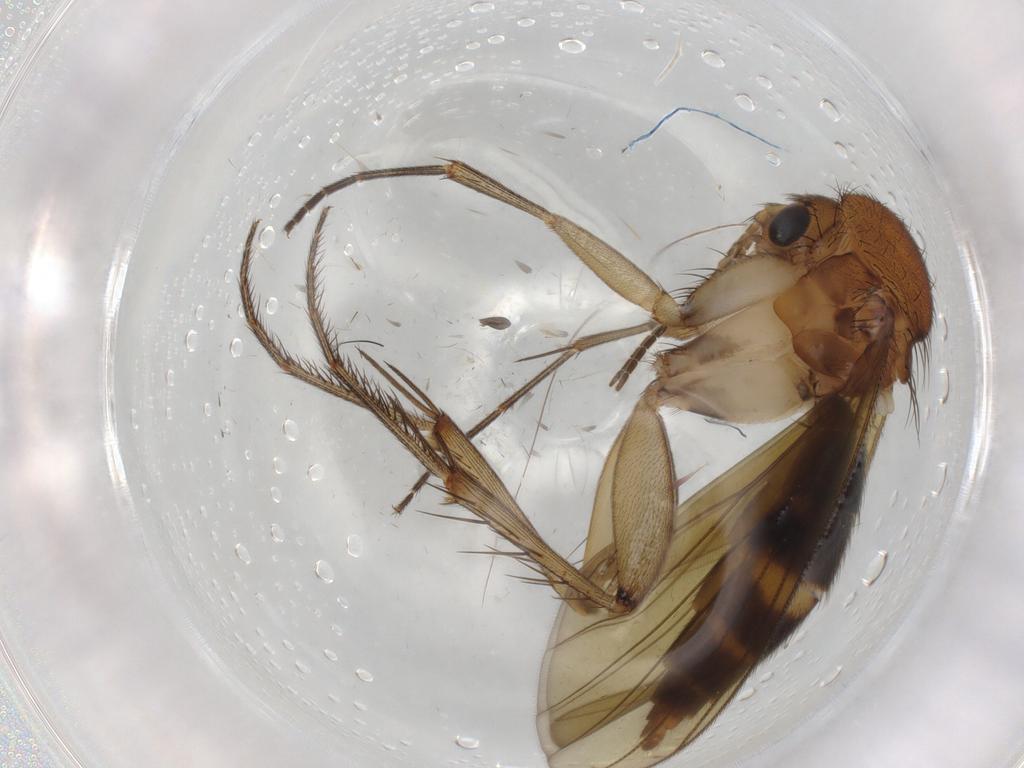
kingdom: Animalia
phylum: Arthropoda
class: Insecta
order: Diptera
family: Mycetophilidae
